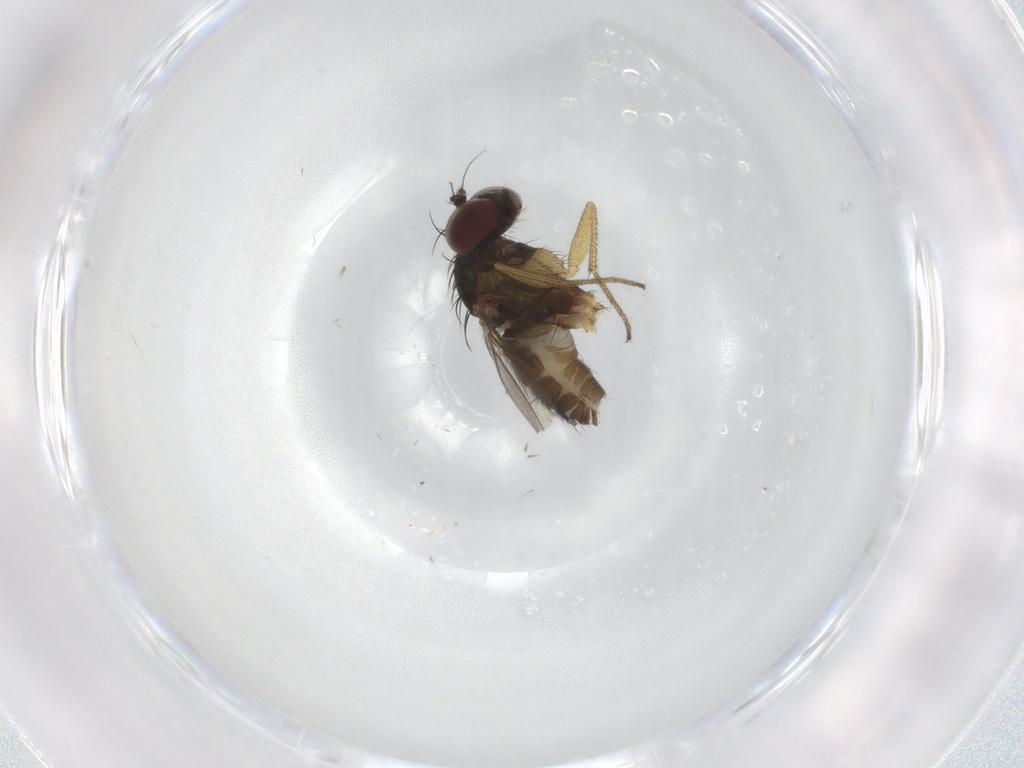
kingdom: Animalia
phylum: Arthropoda
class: Insecta
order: Diptera
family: Dolichopodidae
